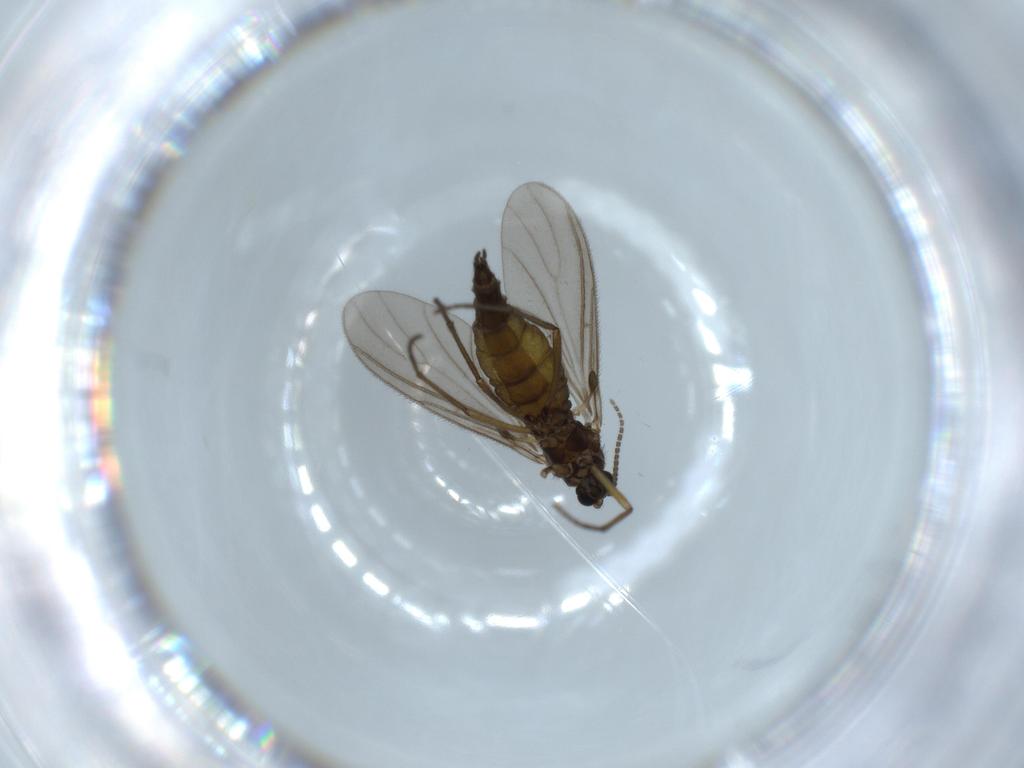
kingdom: Animalia
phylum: Arthropoda
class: Insecta
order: Diptera
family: Sciaridae
